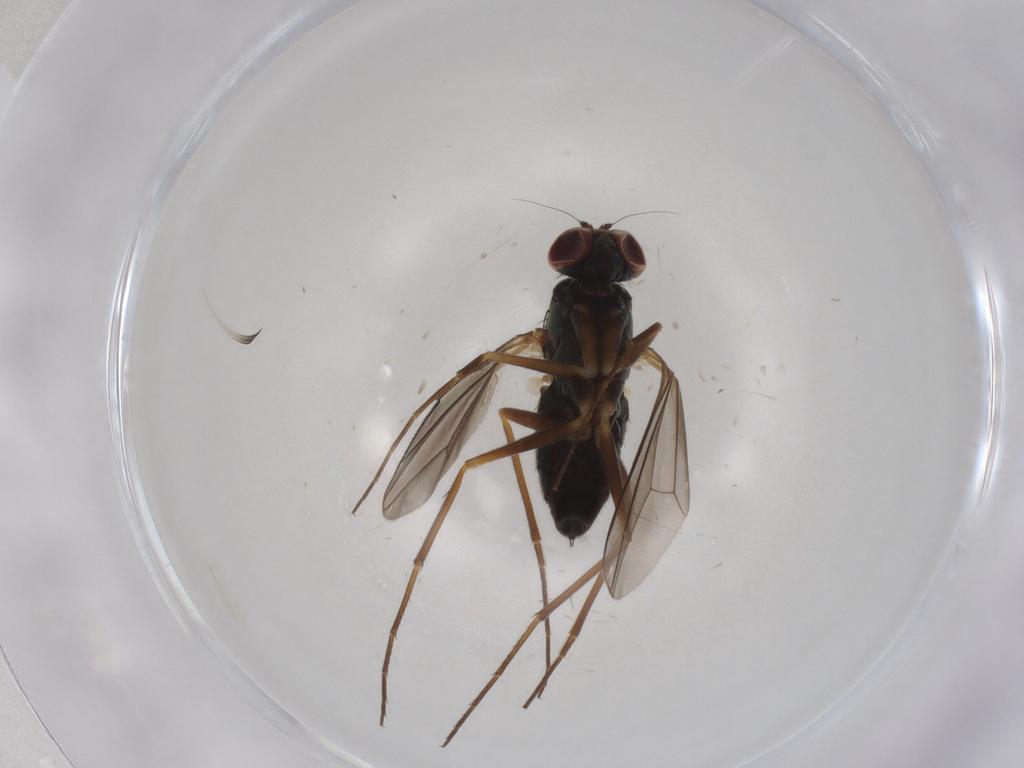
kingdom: Animalia
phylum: Arthropoda
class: Insecta
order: Diptera
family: Dolichopodidae
